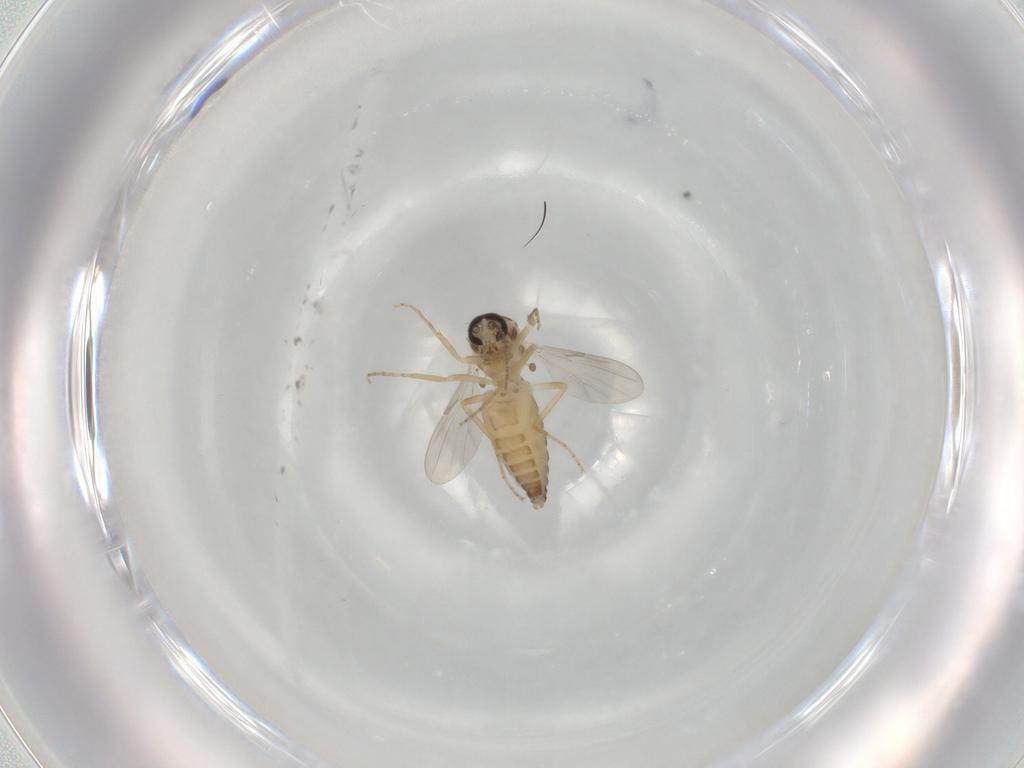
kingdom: Animalia
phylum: Arthropoda
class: Insecta
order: Diptera
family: Ceratopogonidae
